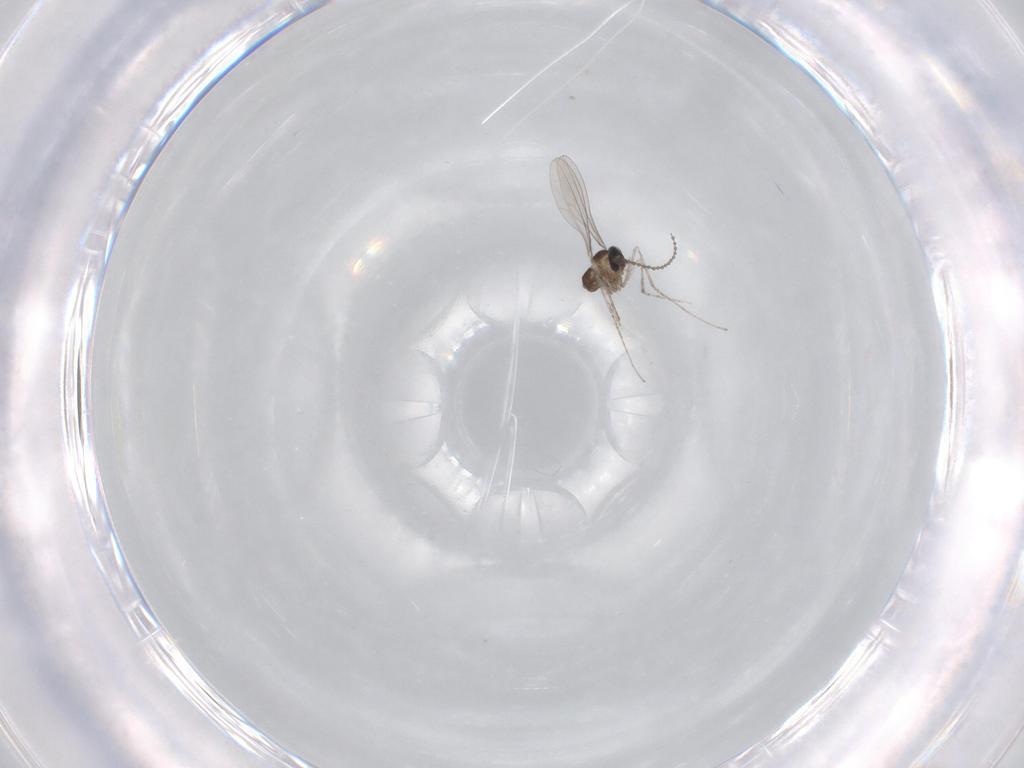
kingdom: Animalia
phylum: Arthropoda
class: Insecta
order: Diptera
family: Cecidomyiidae
